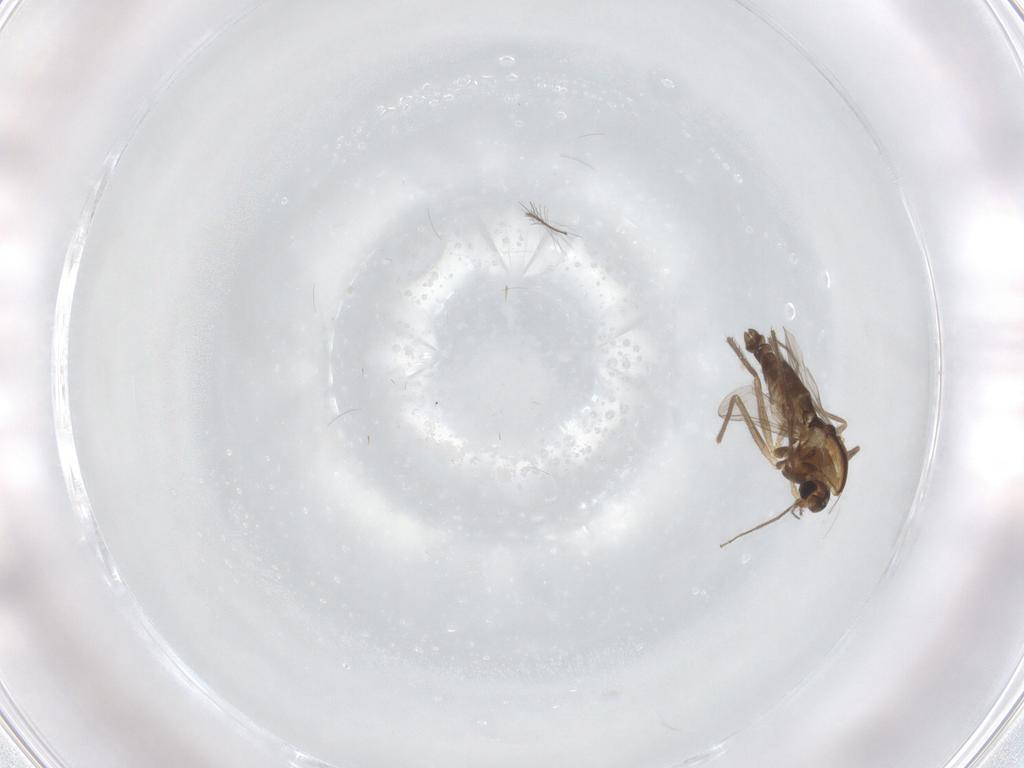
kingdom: Animalia
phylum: Arthropoda
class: Insecta
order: Diptera
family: Chironomidae
